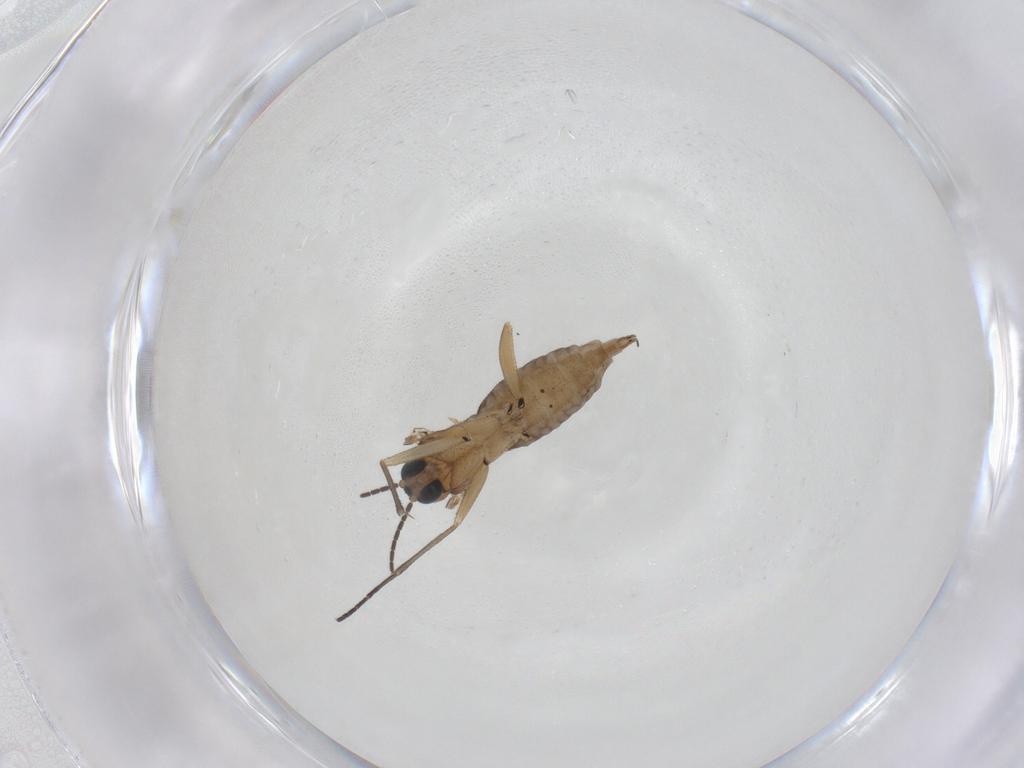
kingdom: Animalia
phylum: Arthropoda
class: Insecta
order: Diptera
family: Sciaridae
